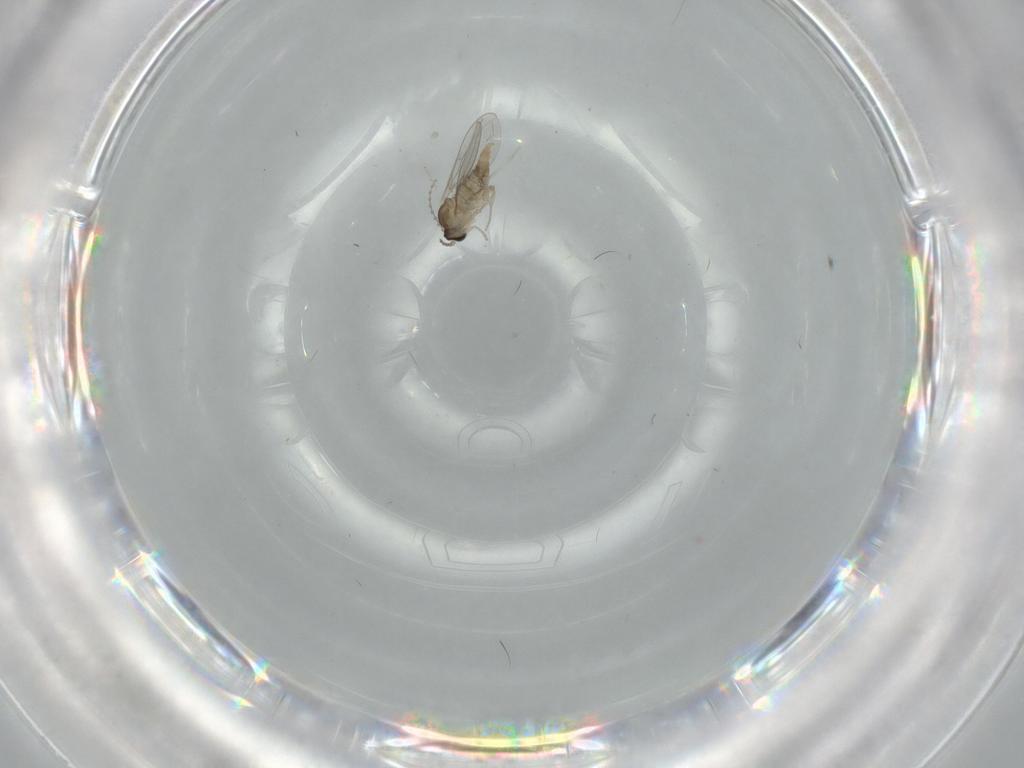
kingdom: Animalia
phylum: Arthropoda
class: Insecta
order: Diptera
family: Cecidomyiidae
